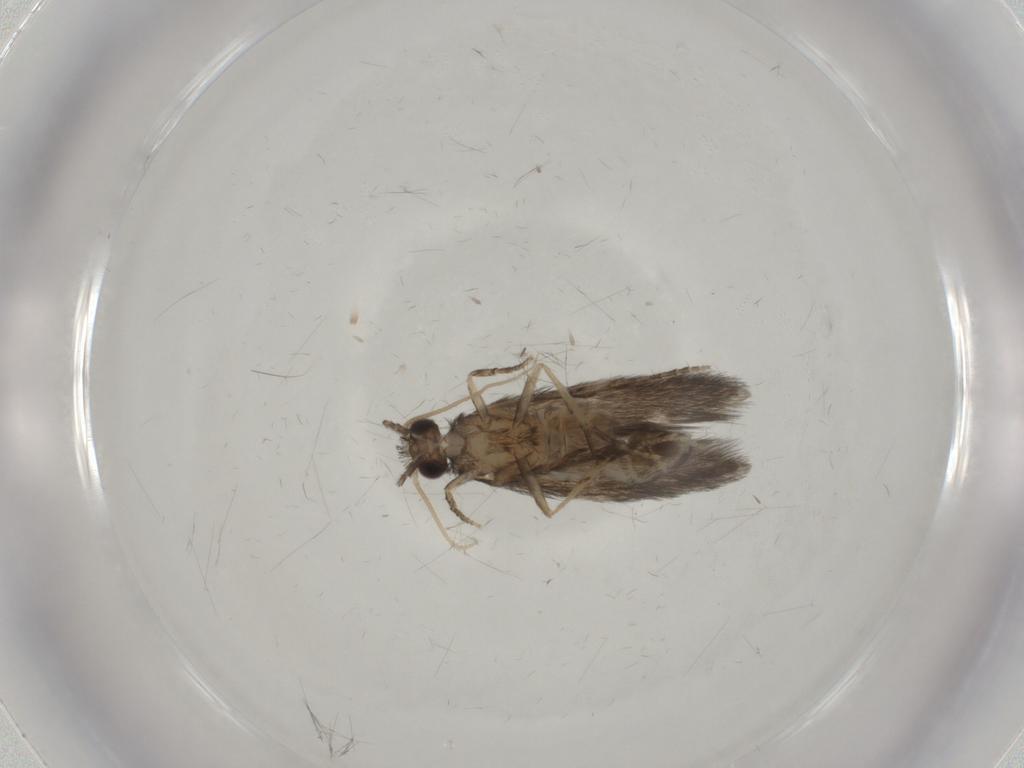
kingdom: Animalia
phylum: Arthropoda
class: Insecta
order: Trichoptera
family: Hydroptilidae
